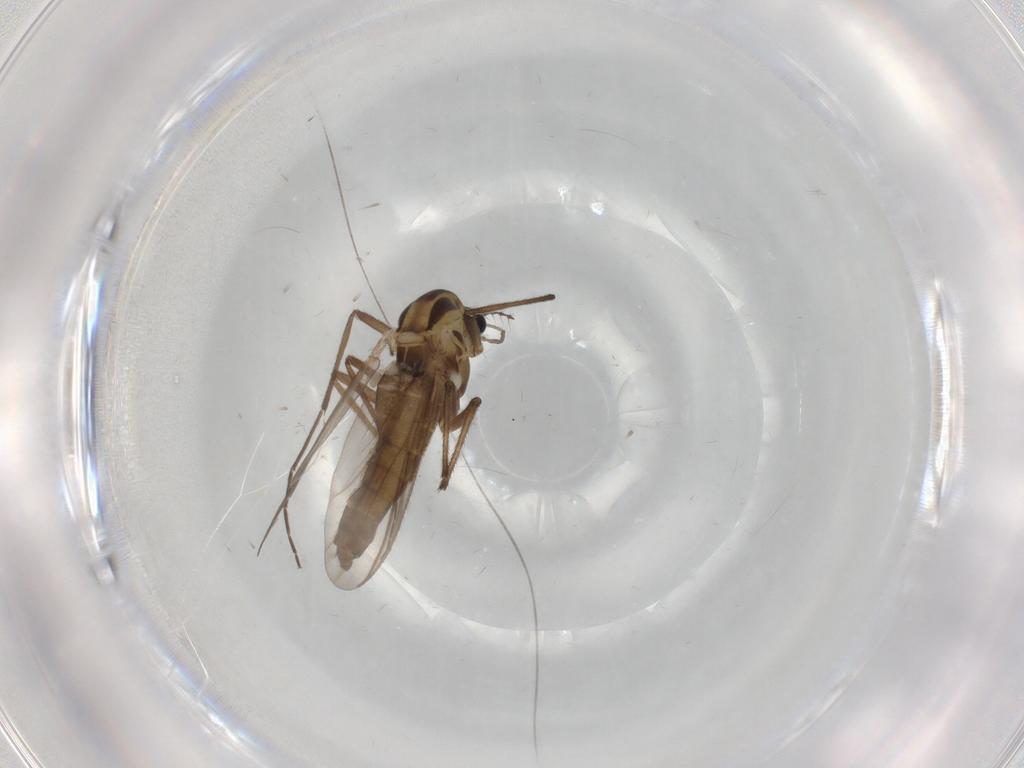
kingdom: Animalia
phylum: Arthropoda
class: Insecta
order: Diptera
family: Chironomidae
